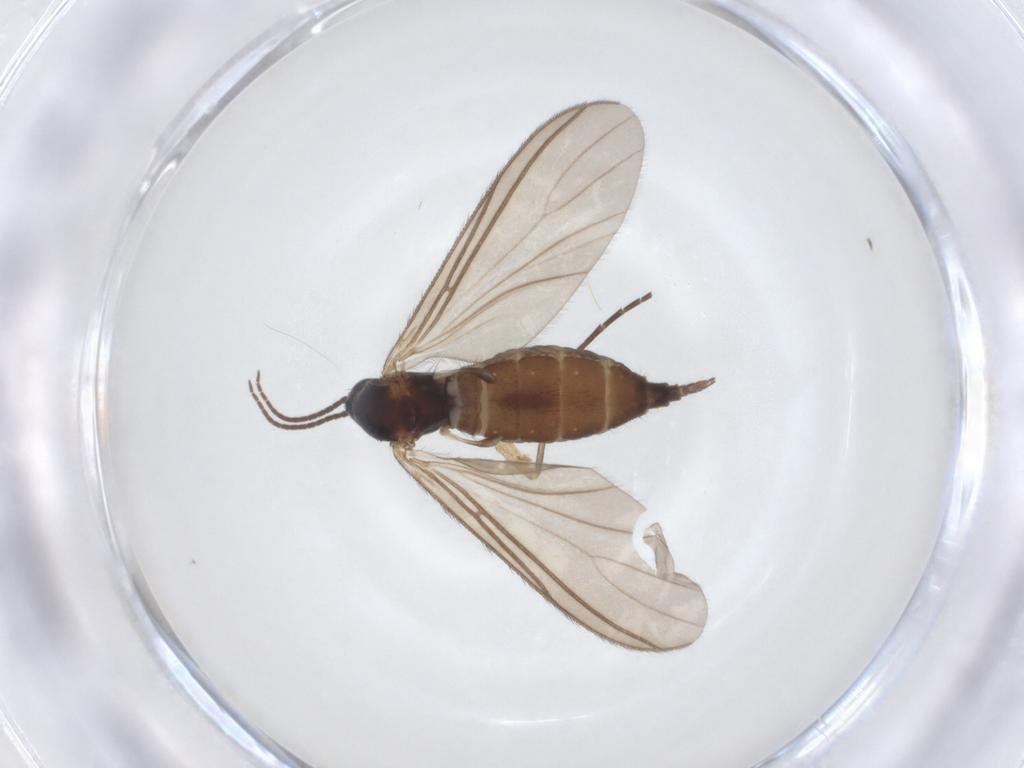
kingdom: Animalia
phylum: Arthropoda
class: Insecta
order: Diptera
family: Sciaridae
